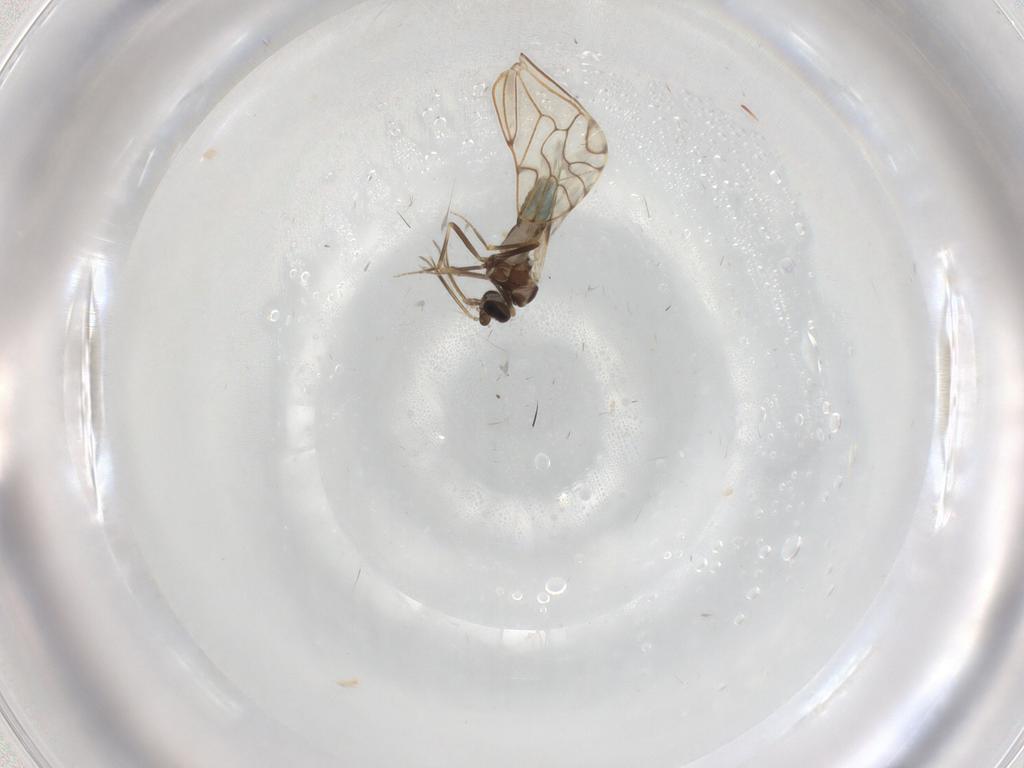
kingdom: Animalia
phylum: Arthropoda
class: Insecta
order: Diptera
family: Ceratopogonidae
